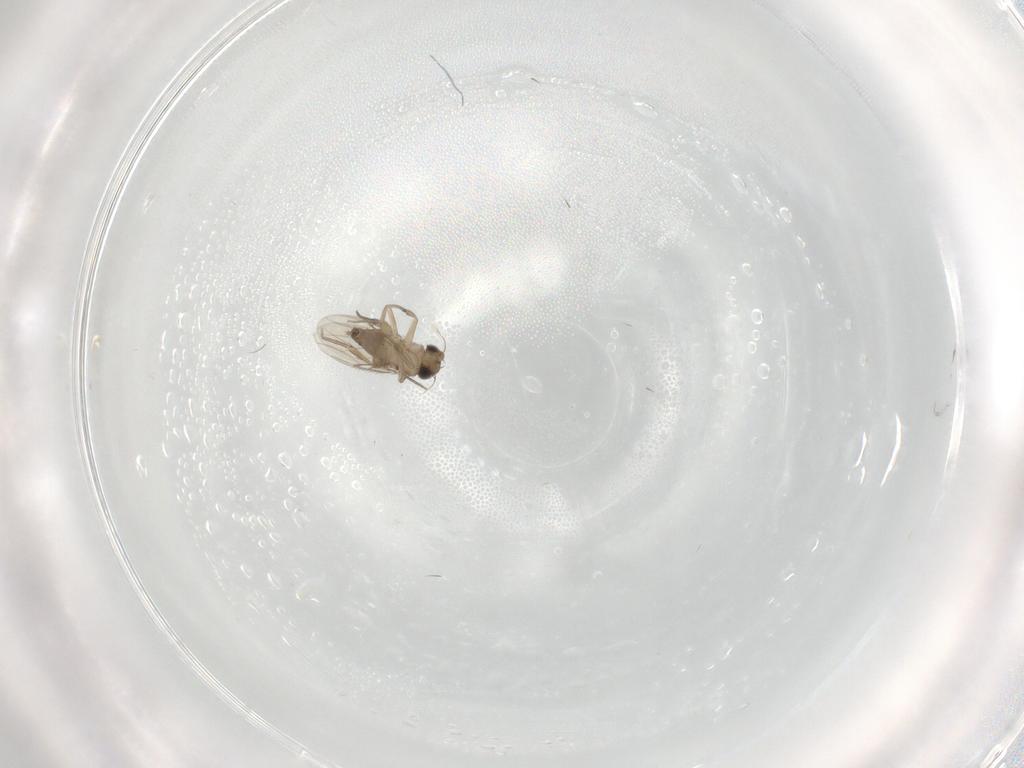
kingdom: Animalia
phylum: Arthropoda
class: Insecta
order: Diptera
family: Phoridae
